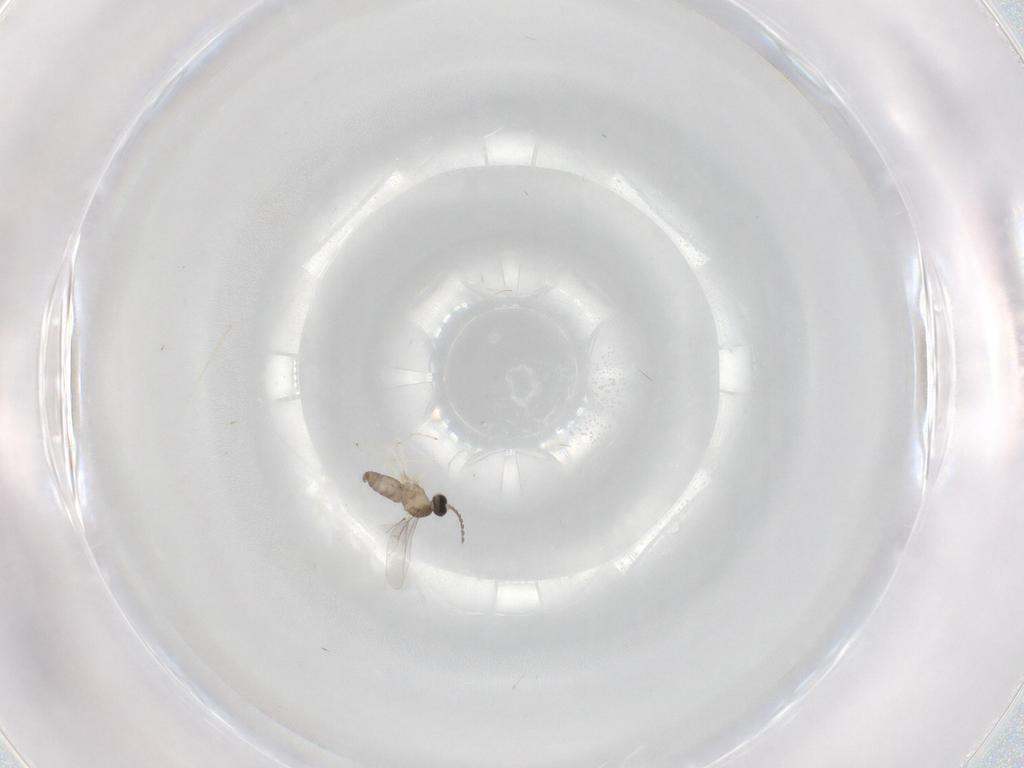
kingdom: Animalia
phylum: Arthropoda
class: Insecta
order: Diptera
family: Cecidomyiidae
